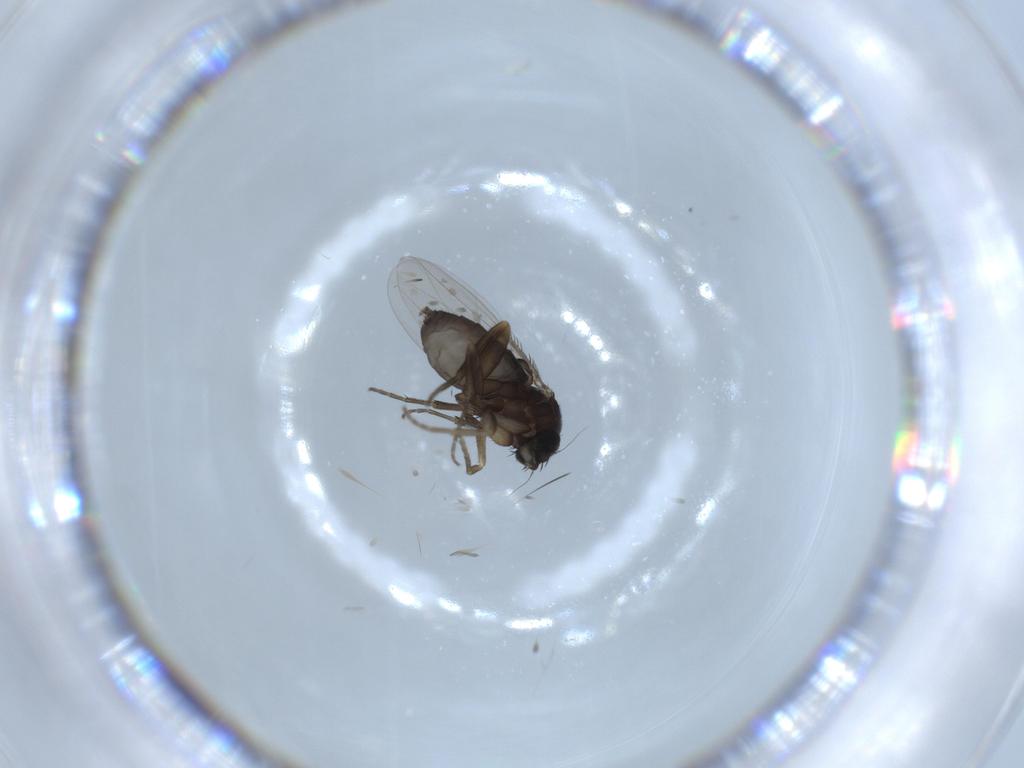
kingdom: Animalia
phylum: Arthropoda
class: Insecta
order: Diptera
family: Phoridae
